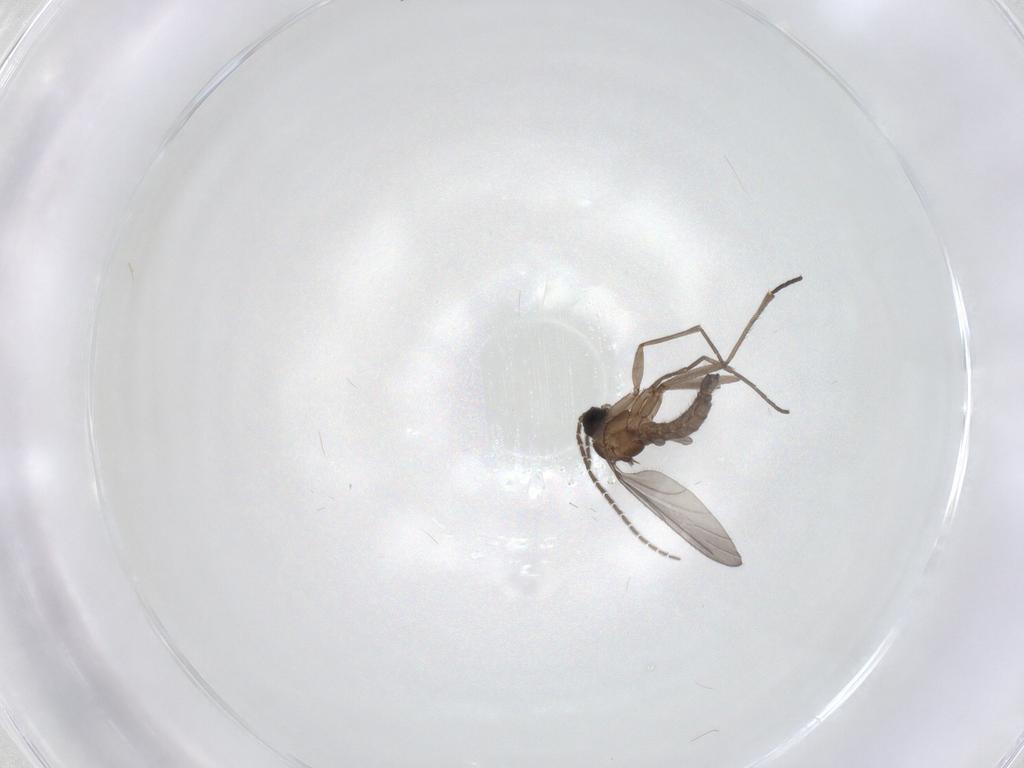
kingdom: Animalia
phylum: Arthropoda
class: Insecta
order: Diptera
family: Sciaridae
